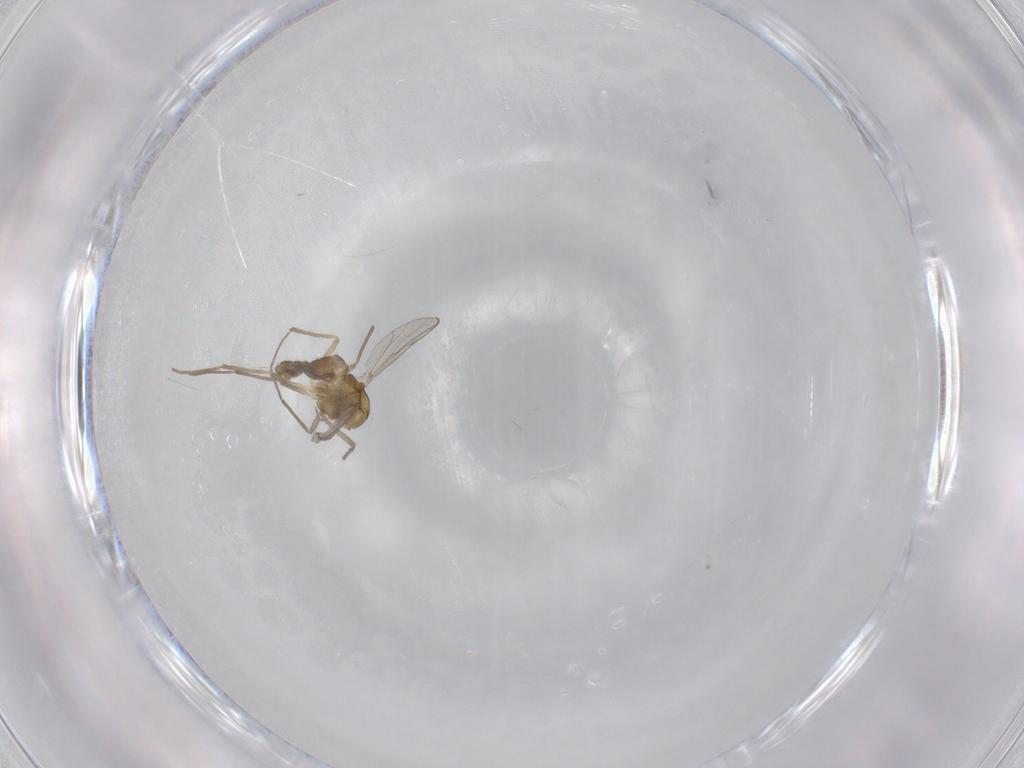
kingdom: Animalia
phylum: Arthropoda
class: Insecta
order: Diptera
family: Chironomidae
